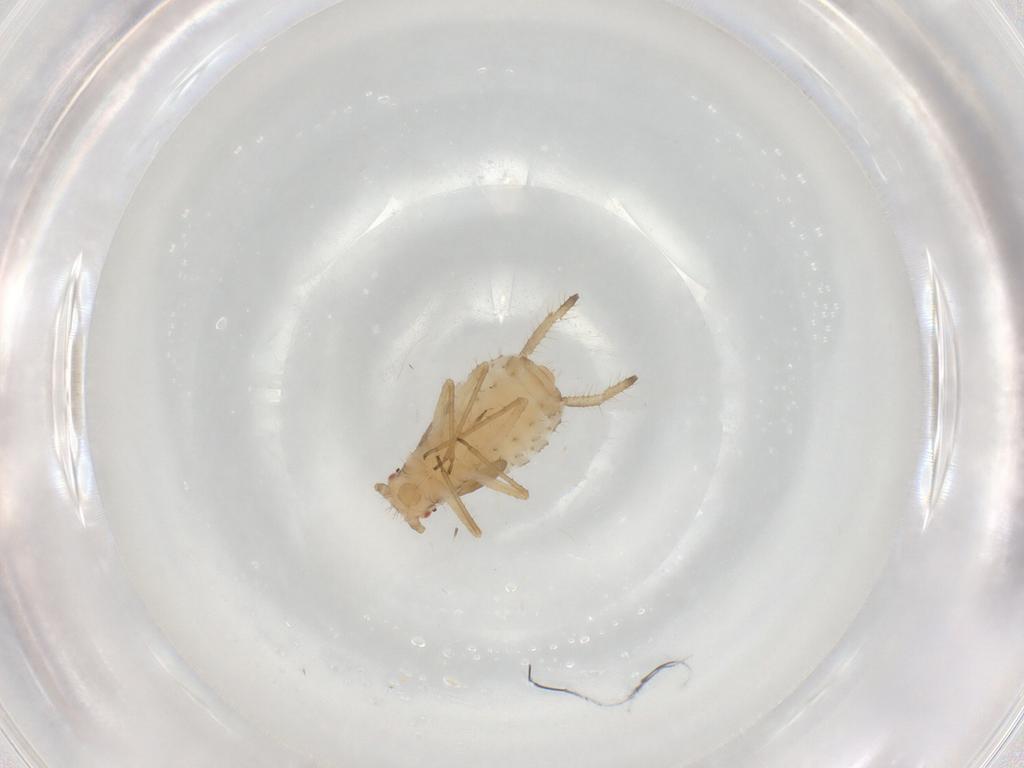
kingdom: Animalia
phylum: Arthropoda
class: Insecta
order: Hemiptera
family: Aphididae
